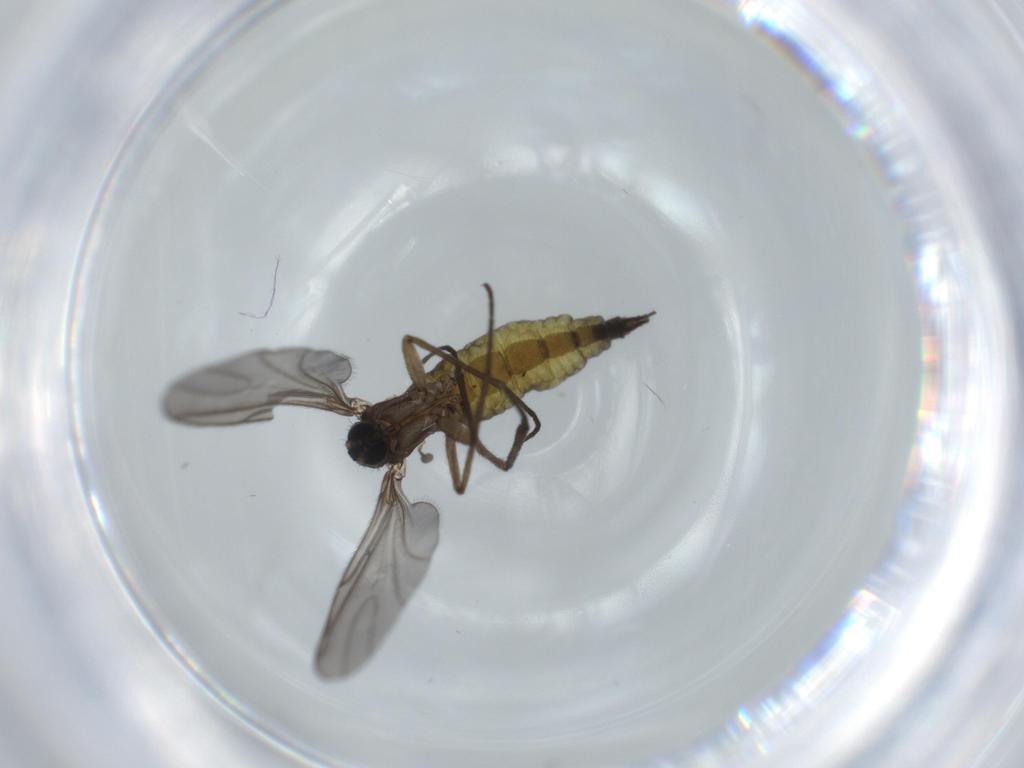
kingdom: Animalia
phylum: Arthropoda
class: Insecta
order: Diptera
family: Sciaridae
